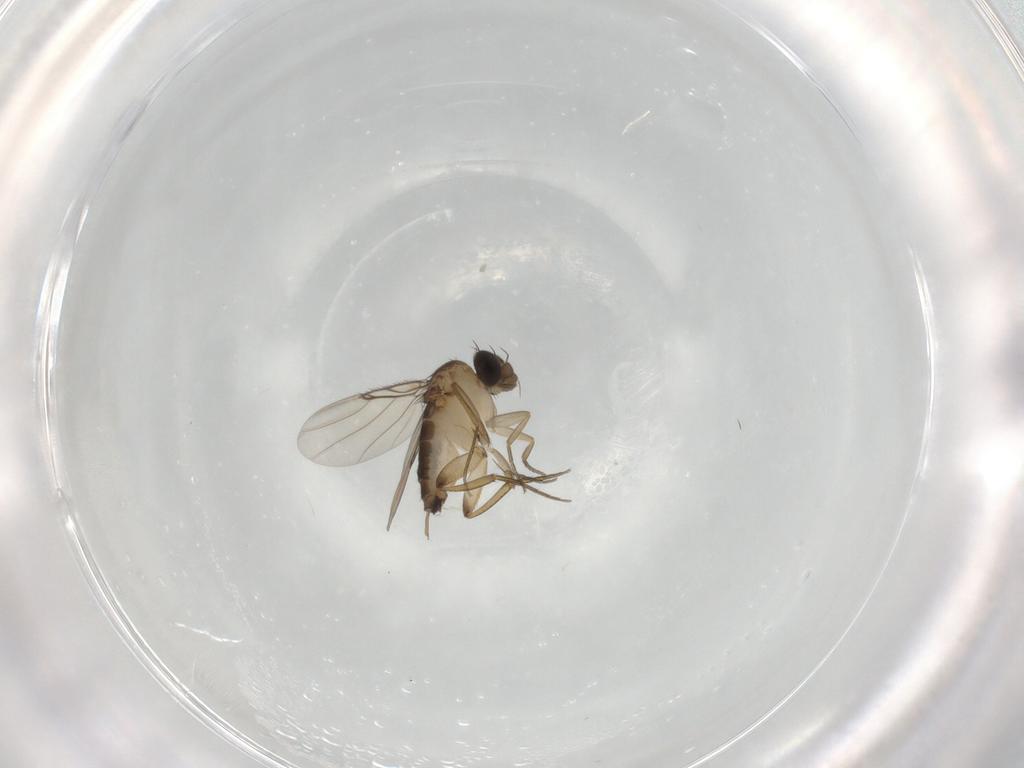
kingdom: Animalia
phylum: Arthropoda
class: Insecta
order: Diptera
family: Phoridae
